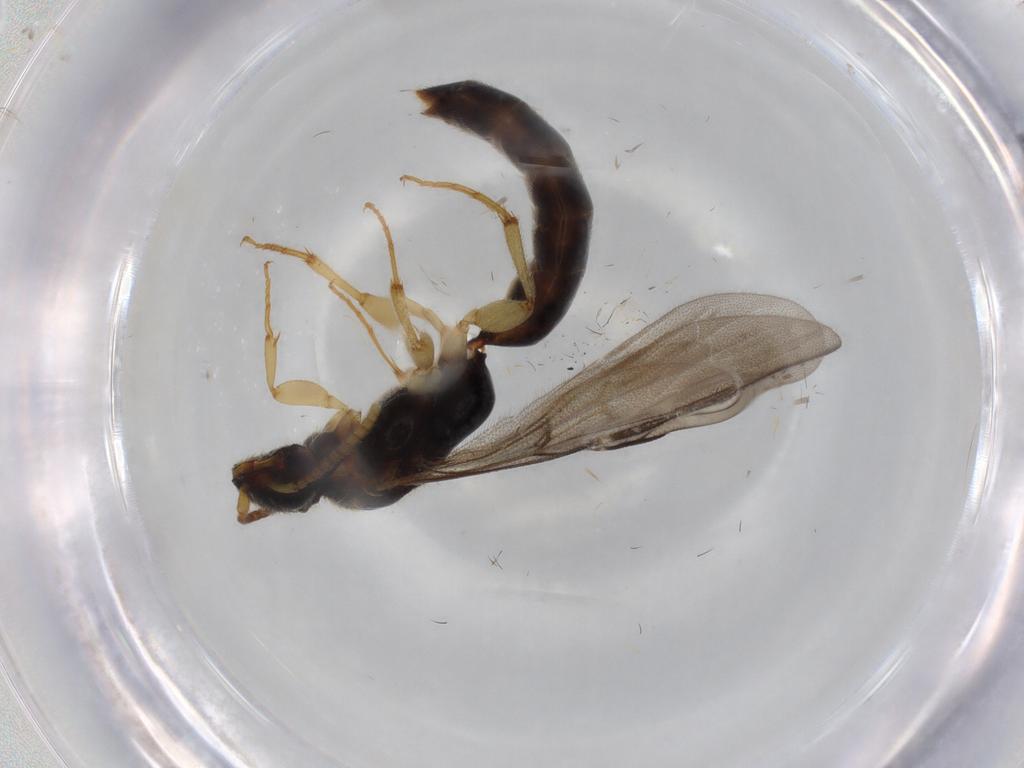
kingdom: Animalia
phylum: Arthropoda
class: Insecta
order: Hymenoptera
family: Bethylidae
